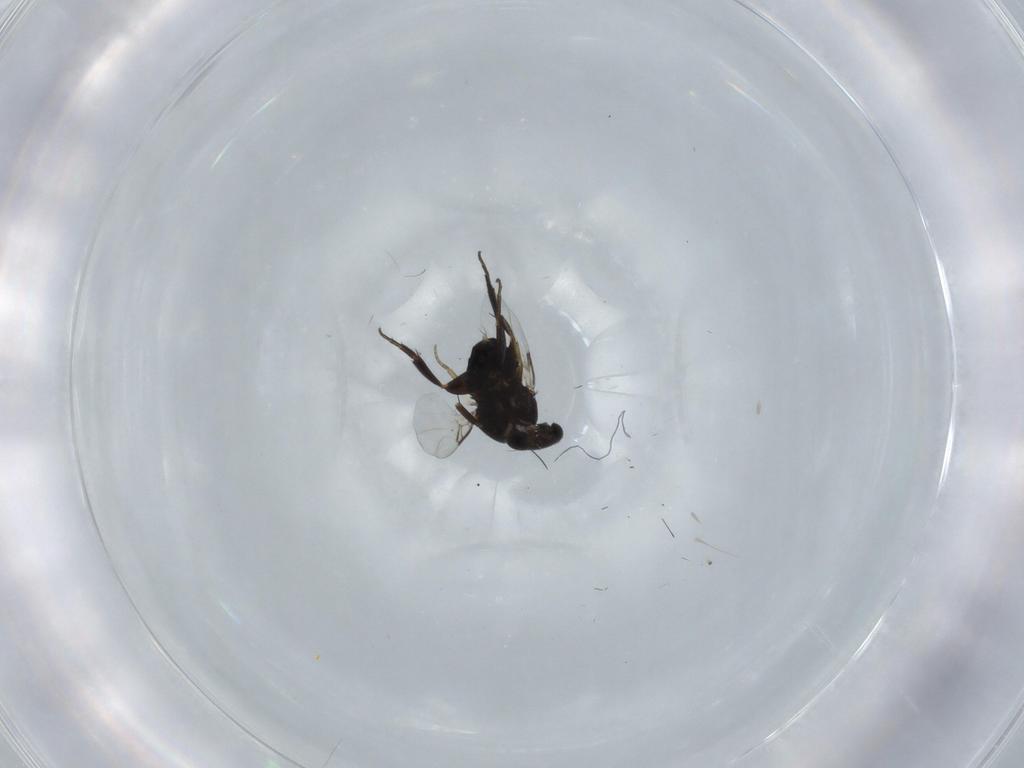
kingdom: Animalia
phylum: Arthropoda
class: Insecta
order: Diptera
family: Phoridae
